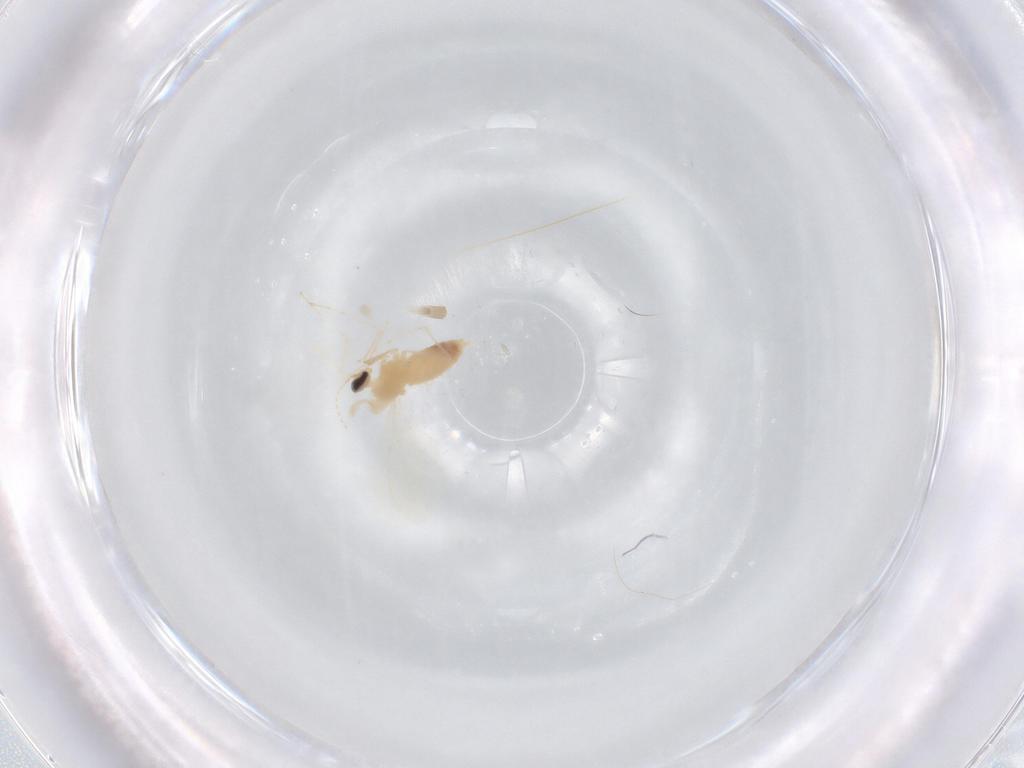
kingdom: Animalia
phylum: Arthropoda
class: Insecta
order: Diptera
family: Cecidomyiidae
